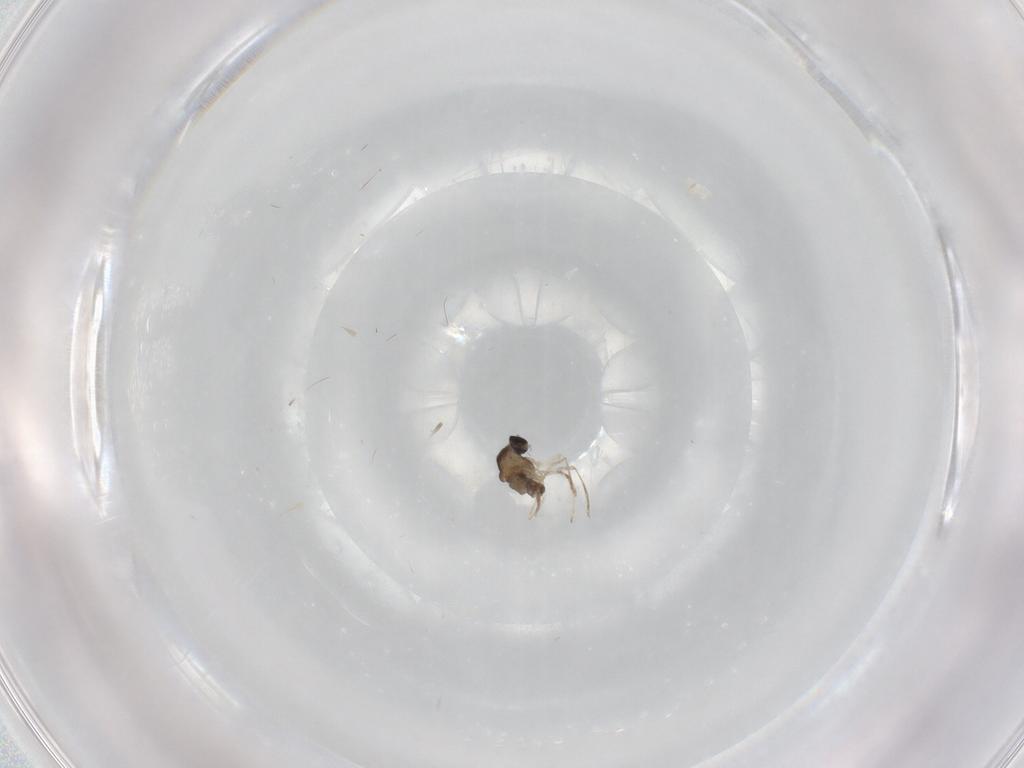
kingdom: Animalia
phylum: Arthropoda
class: Insecta
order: Diptera
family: Cecidomyiidae
